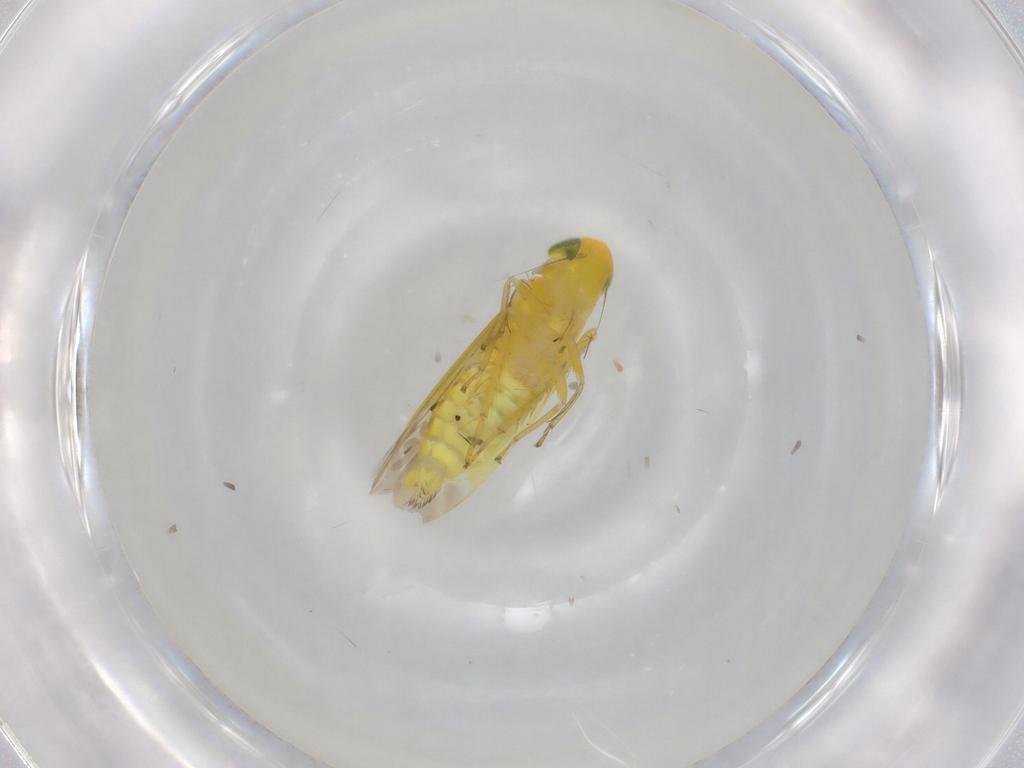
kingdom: Animalia
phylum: Arthropoda
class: Insecta
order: Hemiptera
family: Cicadellidae
